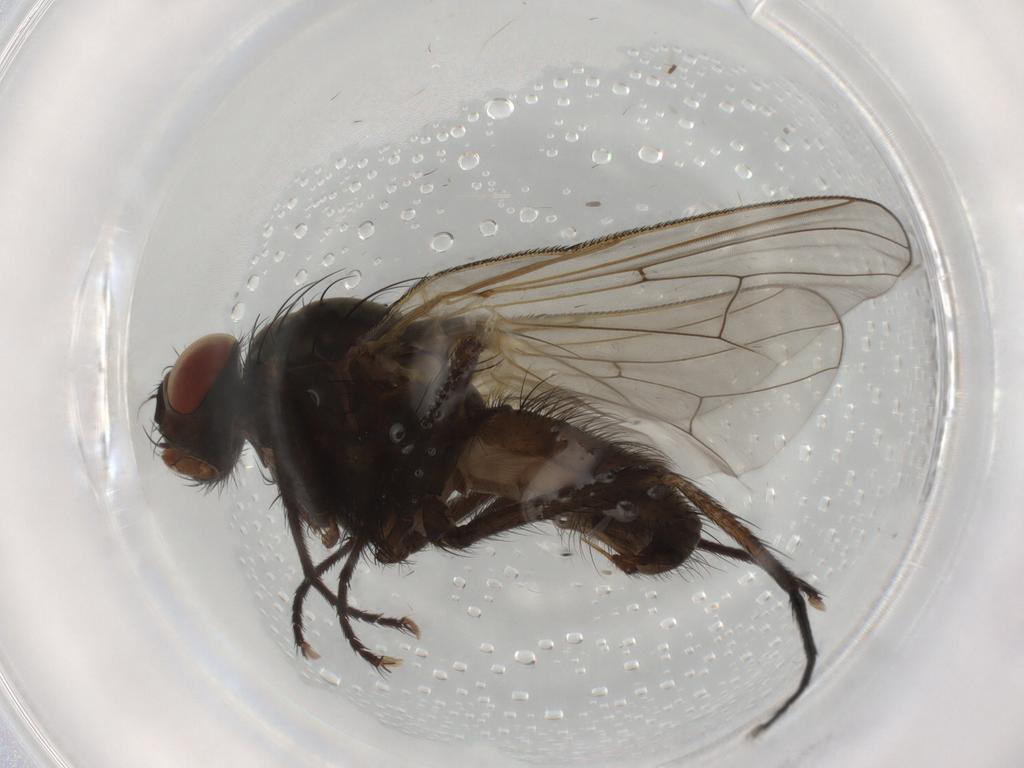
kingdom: Animalia
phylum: Arthropoda
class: Insecta
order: Diptera
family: Anthomyiidae
